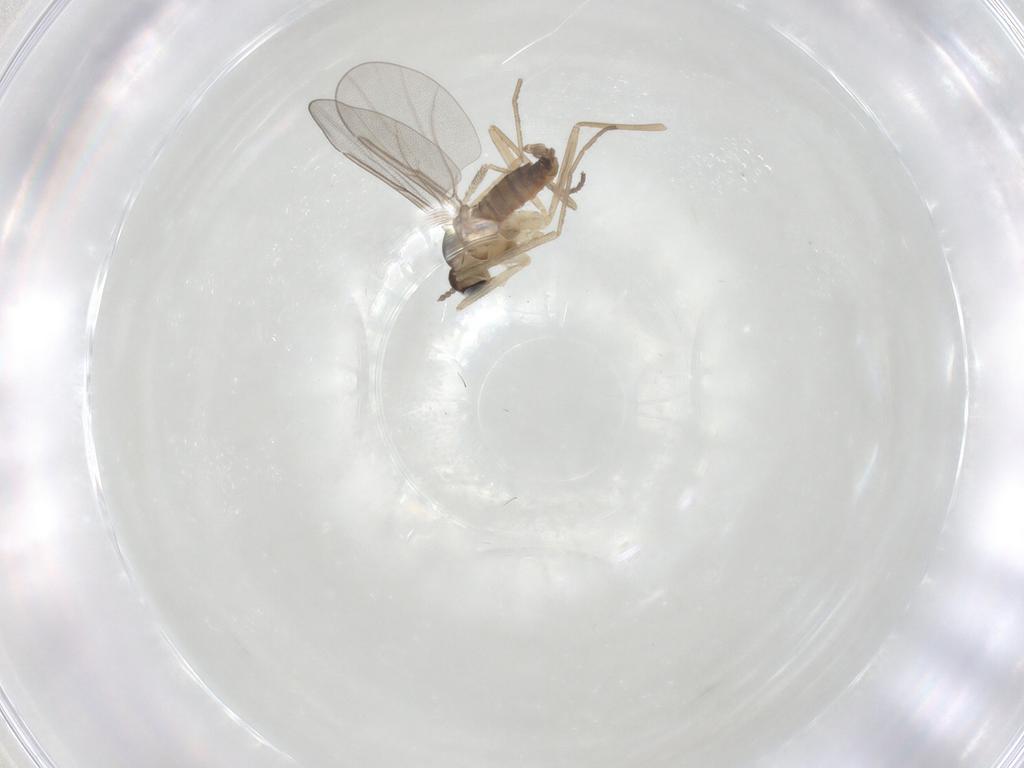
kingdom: Animalia
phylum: Arthropoda
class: Insecta
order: Diptera
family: Cecidomyiidae
